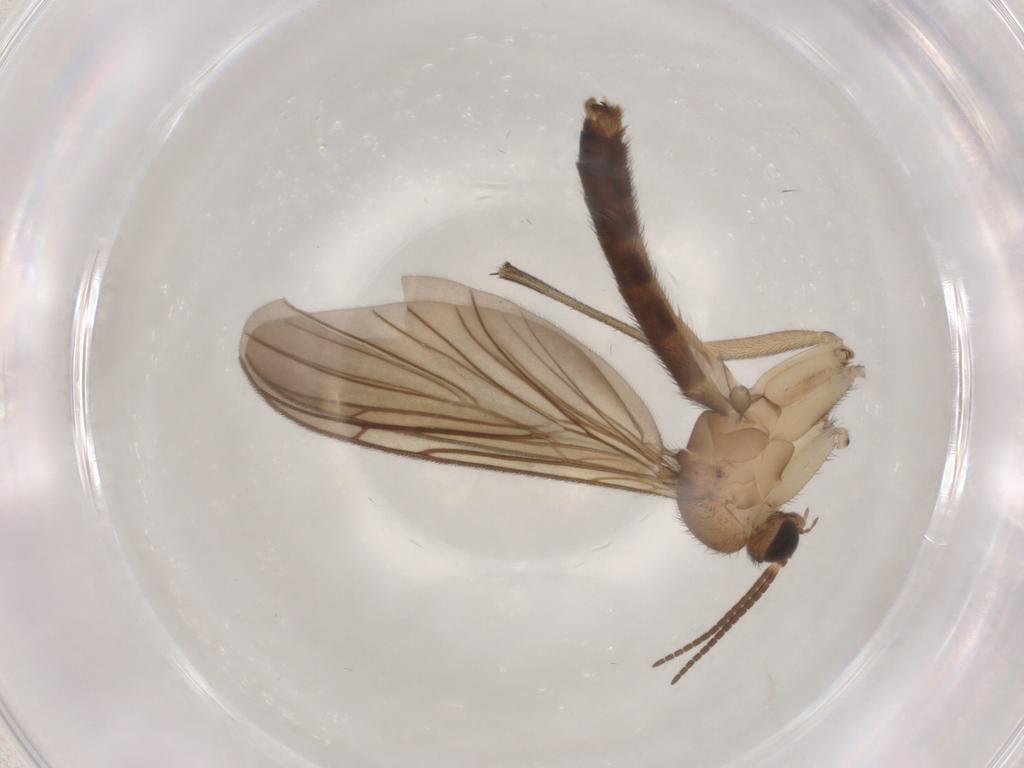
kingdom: Animalia
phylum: Arthropoda
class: Insecta
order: Diptera
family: Keroplatidae
